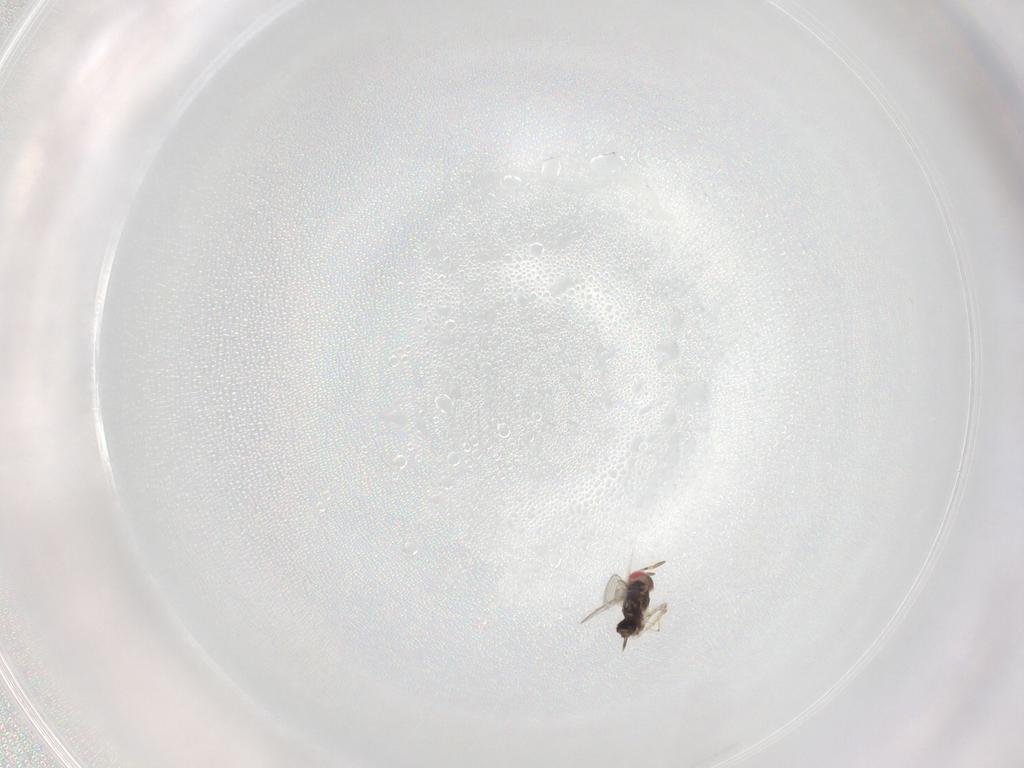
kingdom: Animalia
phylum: Arthropoda
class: Insecta
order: Hymenoptera
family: Azotidae
